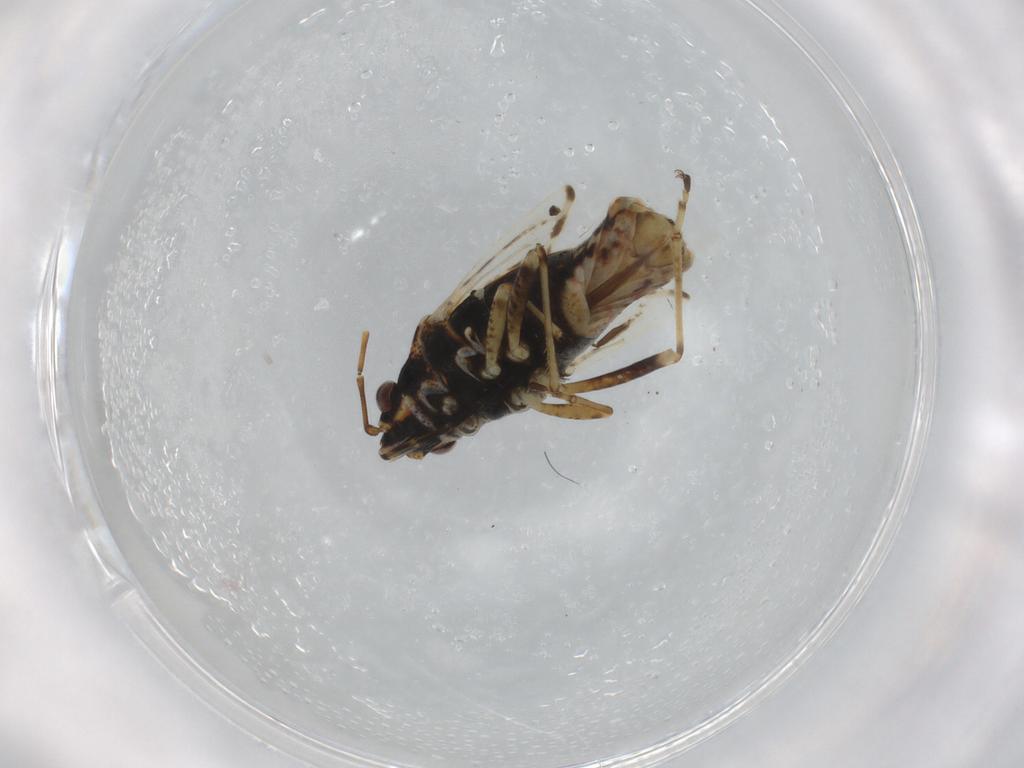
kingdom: Animalia
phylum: Arthropoda
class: Insecta
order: Hemiptera
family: Lygaeidae
